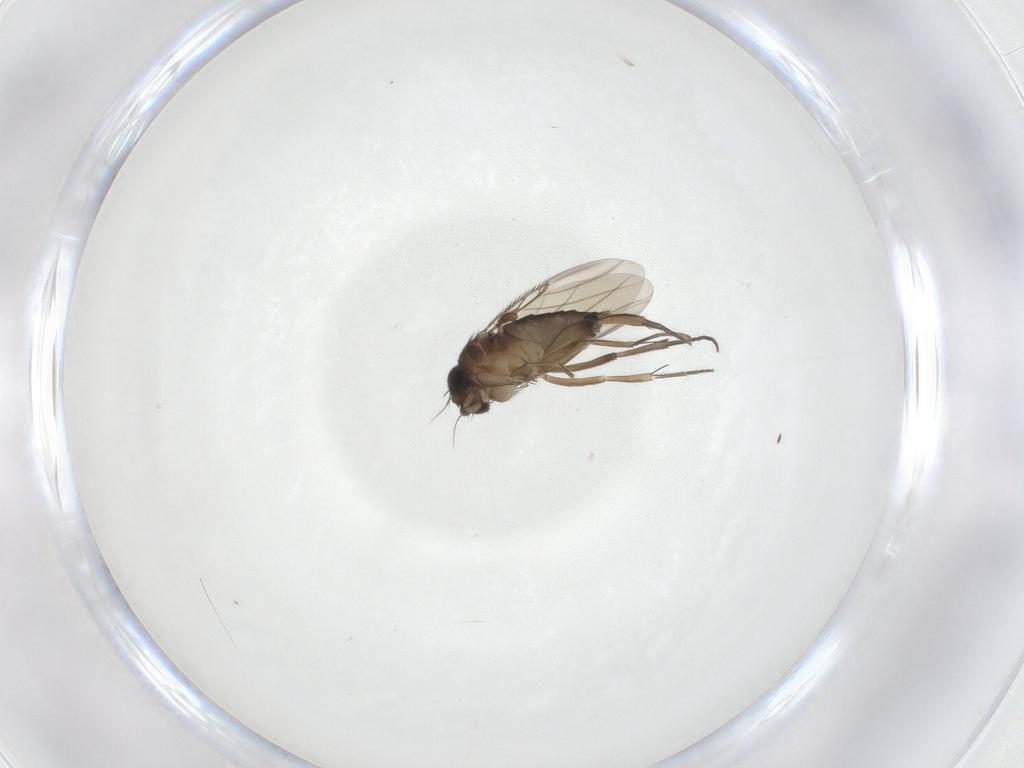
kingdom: Animalia
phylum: Arthropoda
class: Insecta
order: Diptera
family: Phoridae
